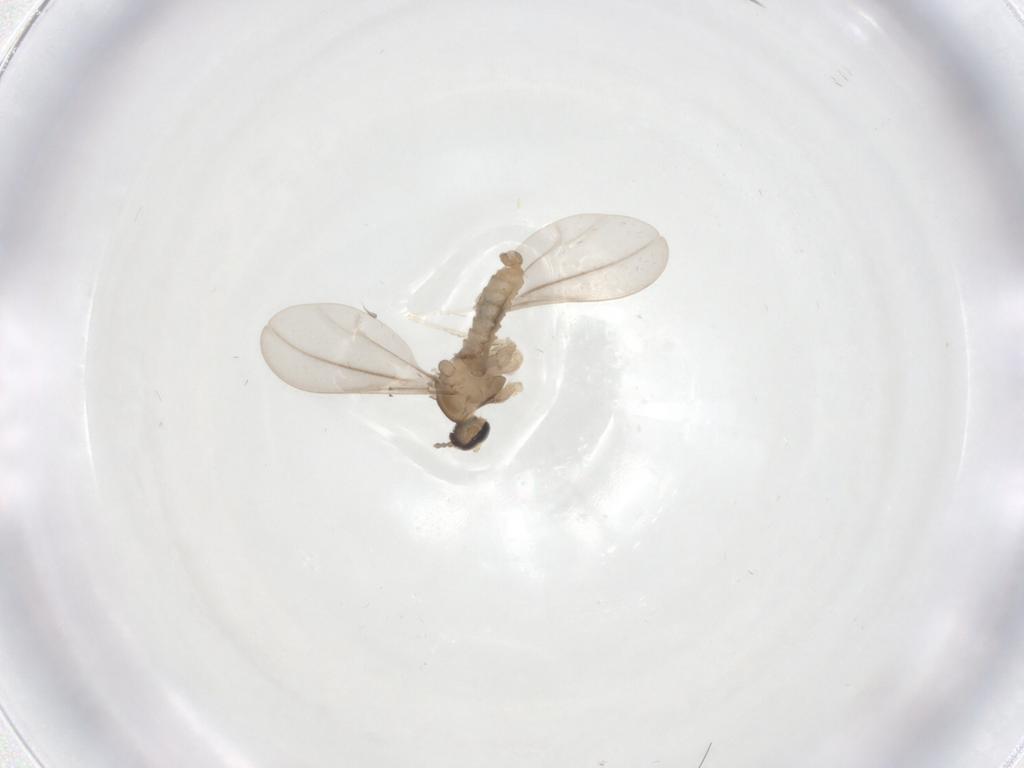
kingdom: Animalia
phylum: Arthropoda
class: Insecta
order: Diptera
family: Cecidomyiidae
